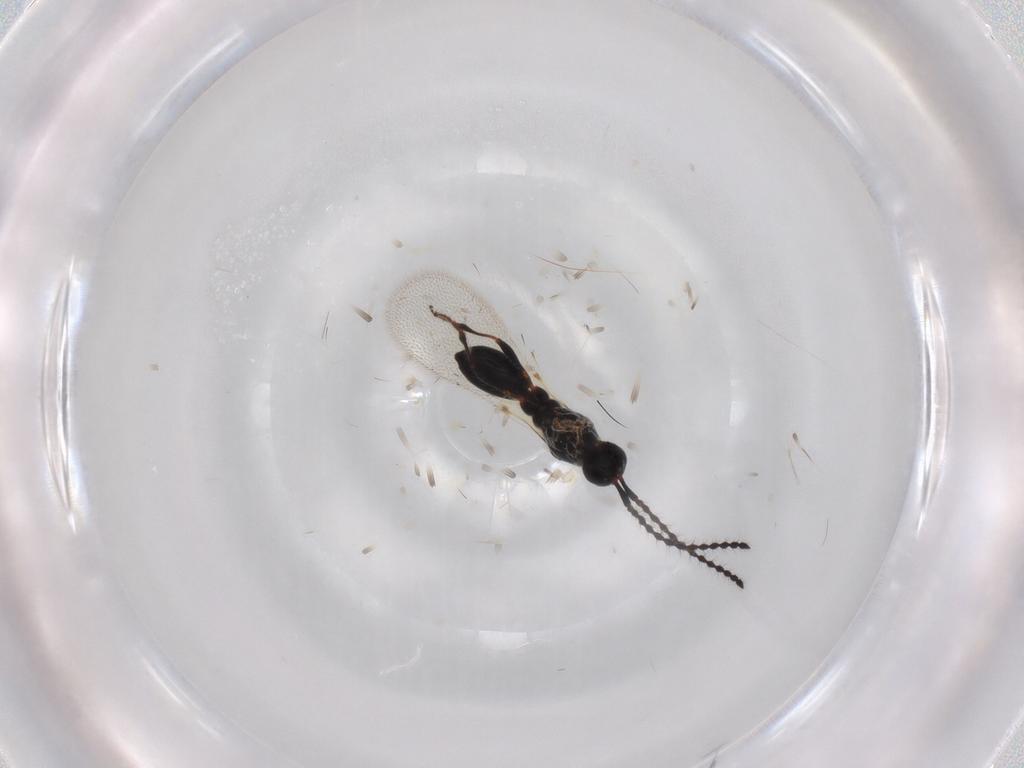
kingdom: Animalia
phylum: Arthropoda
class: Insecta
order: Hymenoptera
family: Diapriidae
